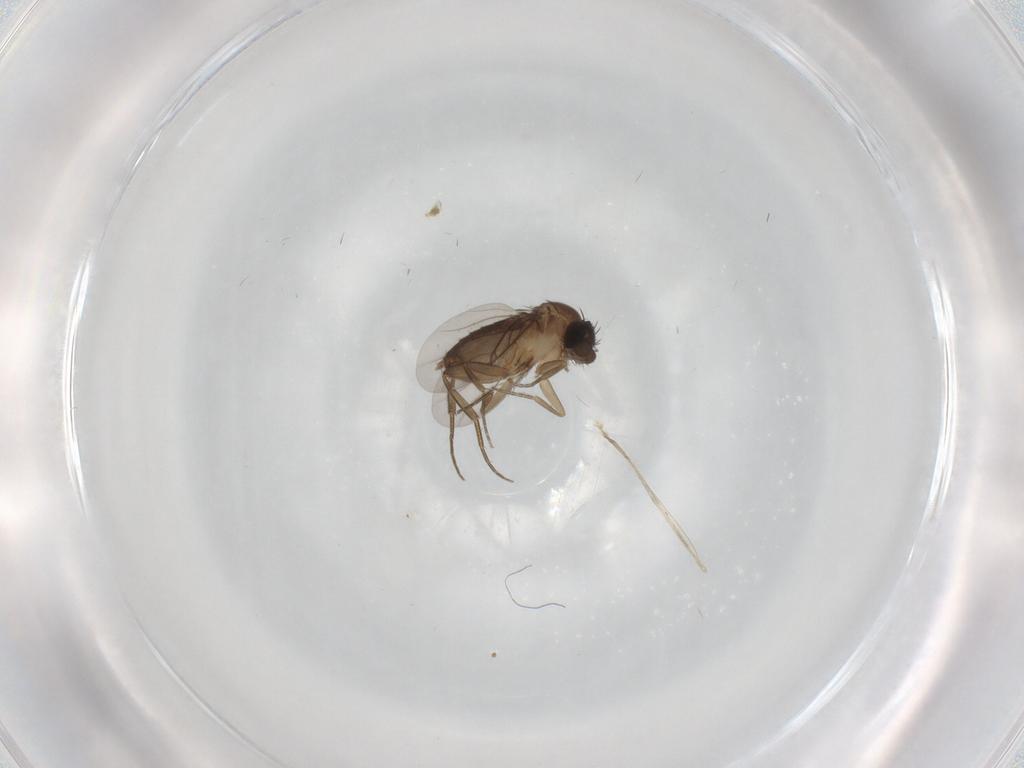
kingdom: Animalia
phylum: Arthropoda
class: Insecta
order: Diptera
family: Phoridae
